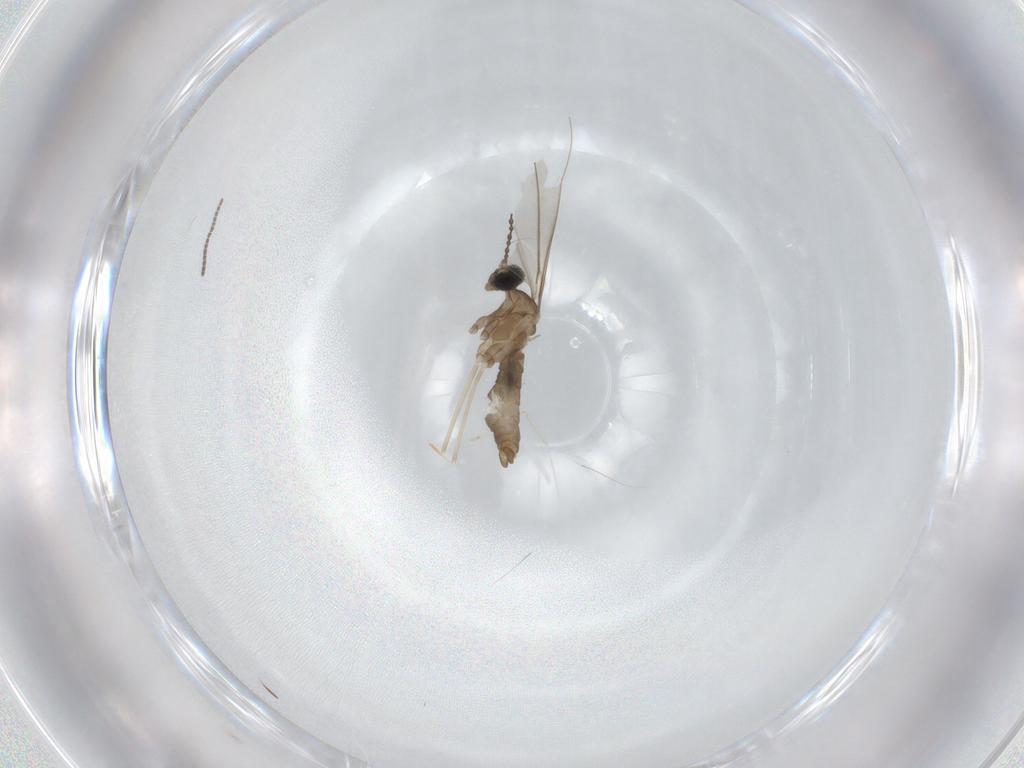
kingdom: Animalia
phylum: Arthropoda
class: Insecta
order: Diptera
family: Cecidomyiidae
